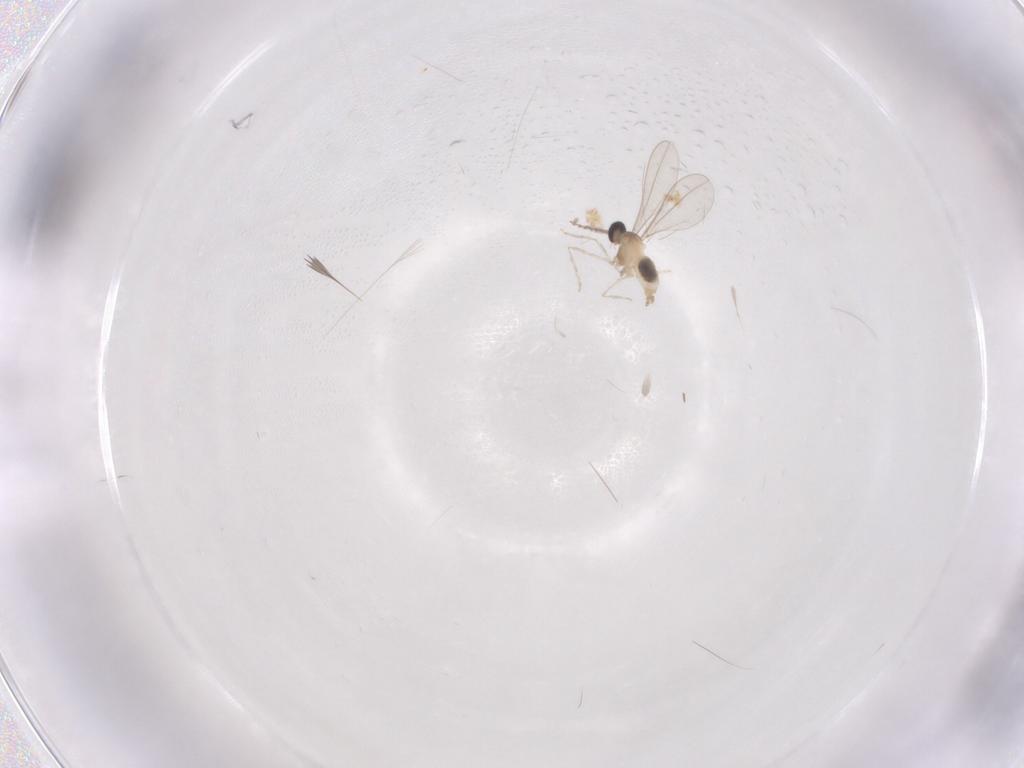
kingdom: Animalia
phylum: Arthropoda
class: Insecta
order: Diptera
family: Cecidomyiidae
